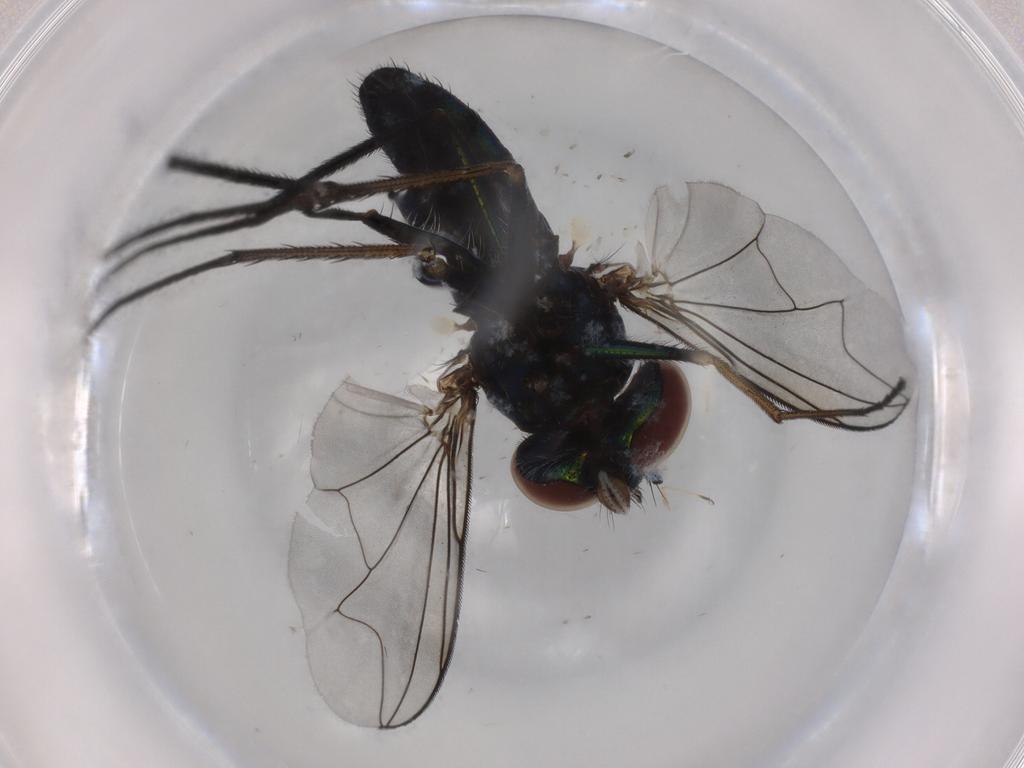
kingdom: Animalia
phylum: Arthropoda
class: Insecta
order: Diptera
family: Dolichopodidae
